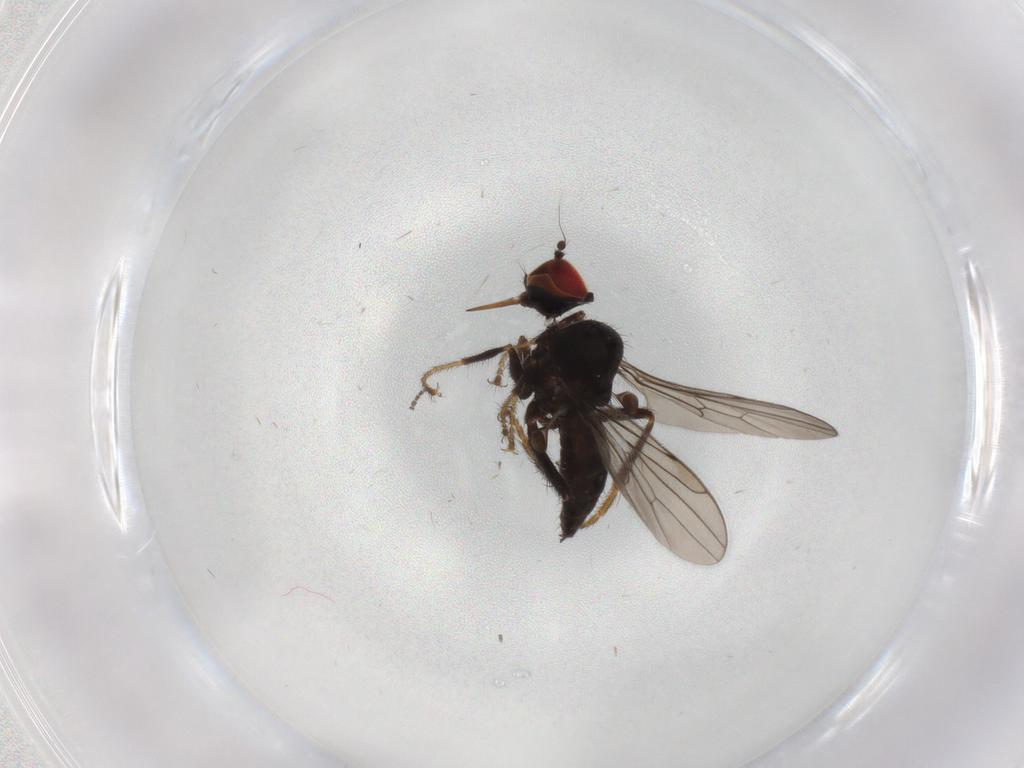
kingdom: Animalia
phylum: Arthropoda
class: Insecta
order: Diptera
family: Hybotidae
